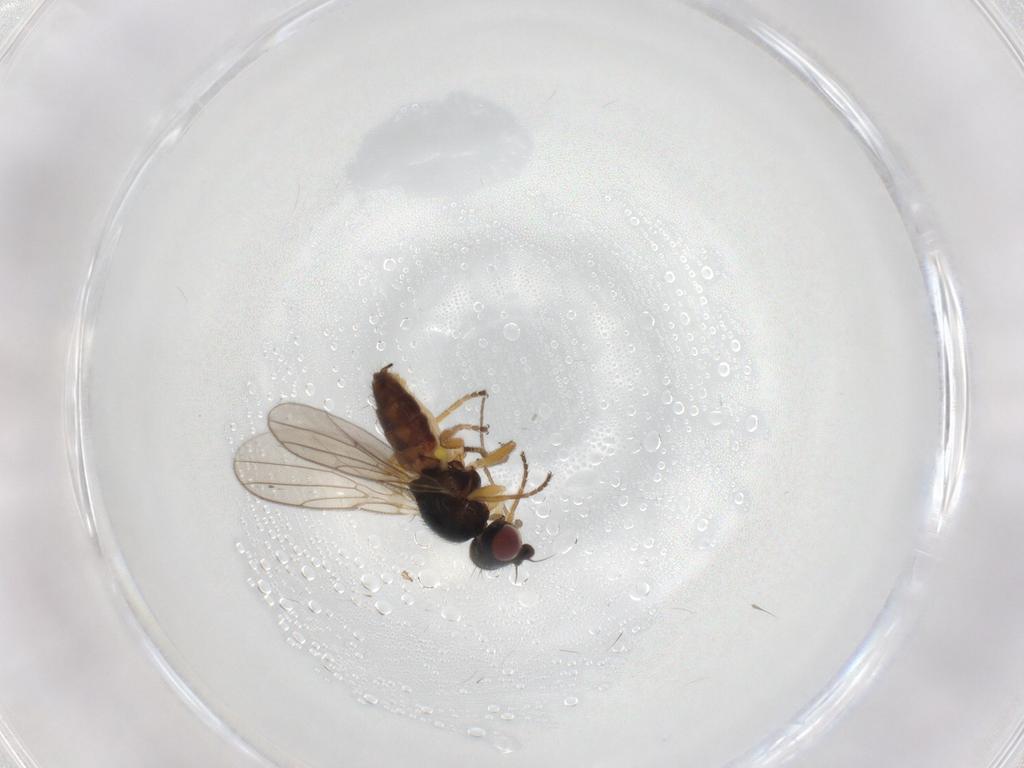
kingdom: Animalia
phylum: Arthropoda
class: Insecta
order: Diptera
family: Chloropidae
